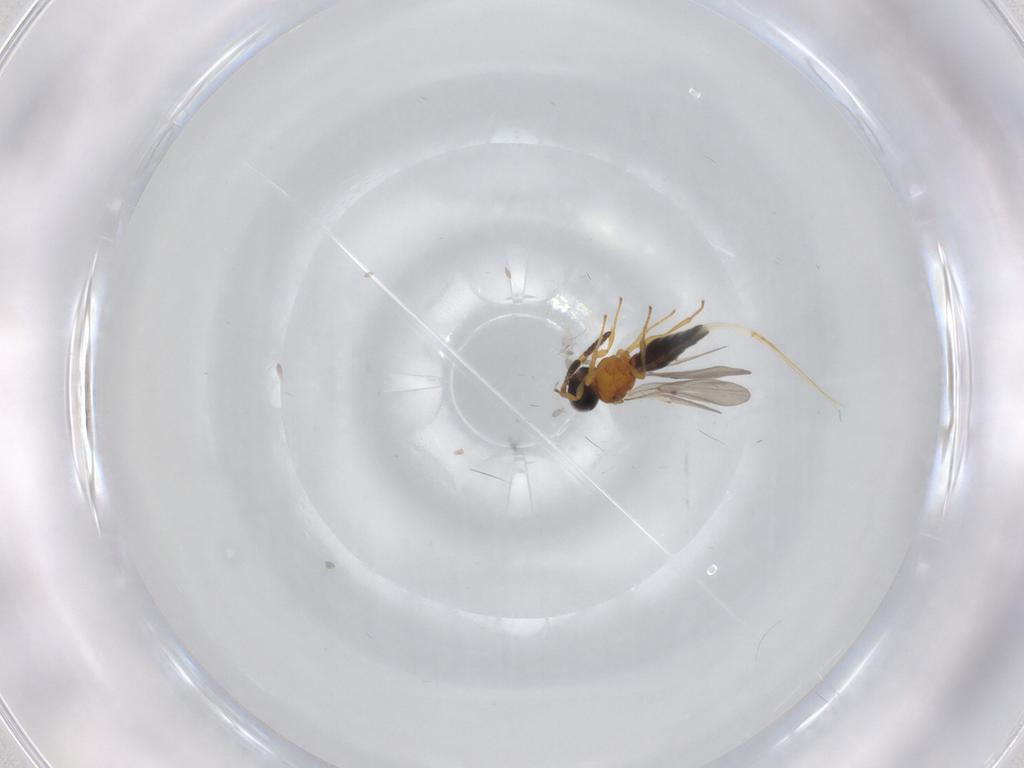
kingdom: Animalia
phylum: Arthropoda
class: Insecta
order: Hymenoptera
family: Platygastridae
